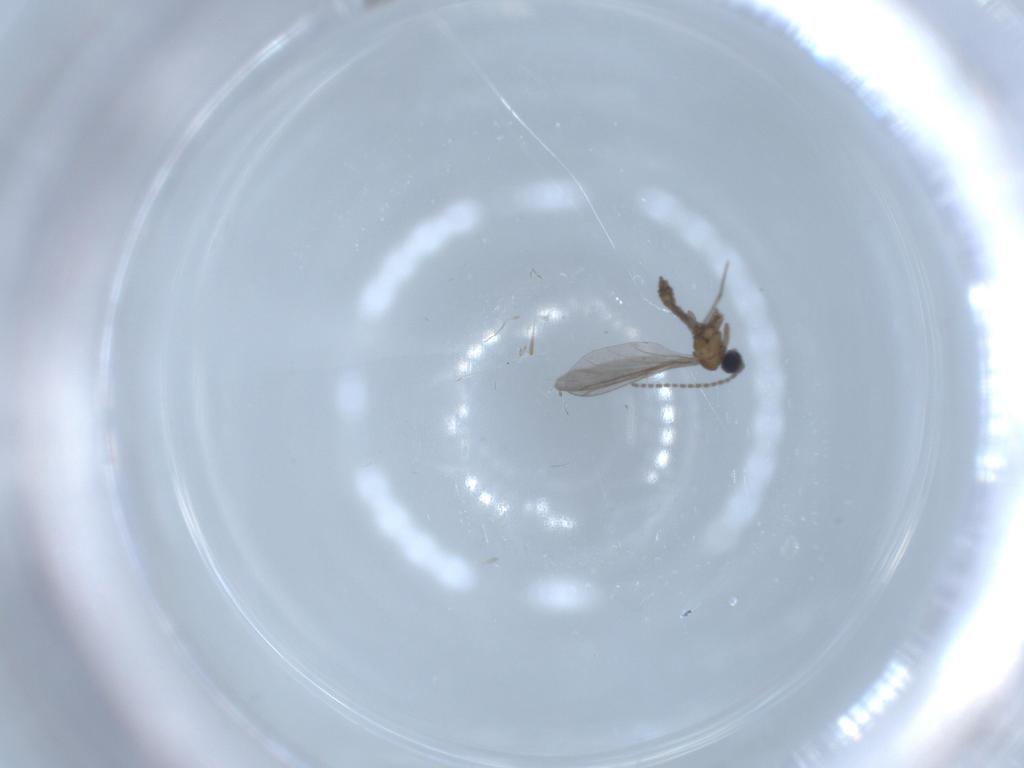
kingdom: Animalia
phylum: Arthropoda
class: Insecta
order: Diptera
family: Sciaridae
